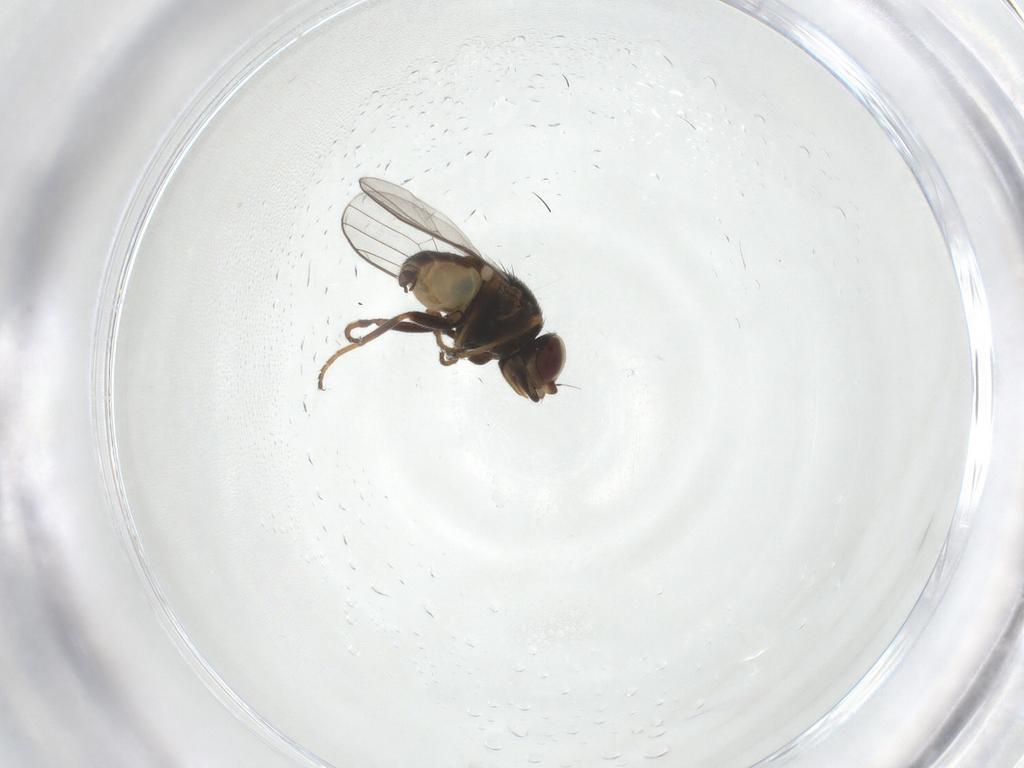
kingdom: Animalia
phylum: Arthropoda
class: Insecta
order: Diptera
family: Chloropidae
